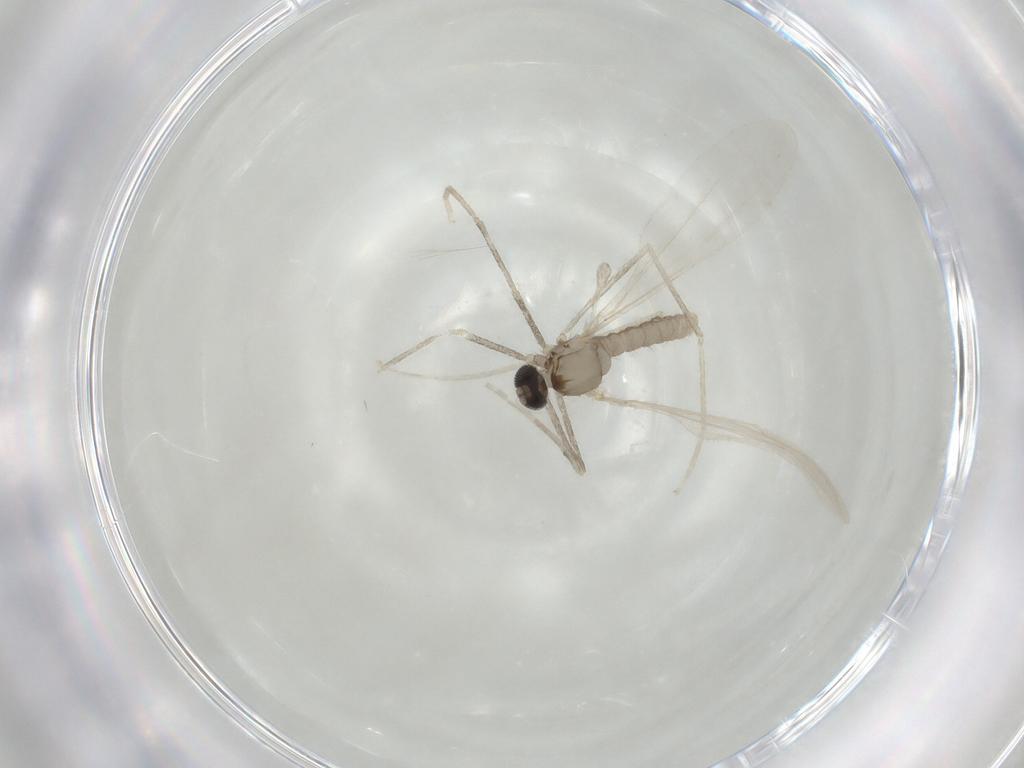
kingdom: Animalia
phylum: Arthropoda
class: Insecta
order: Diptera
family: Cecidomyiidae
